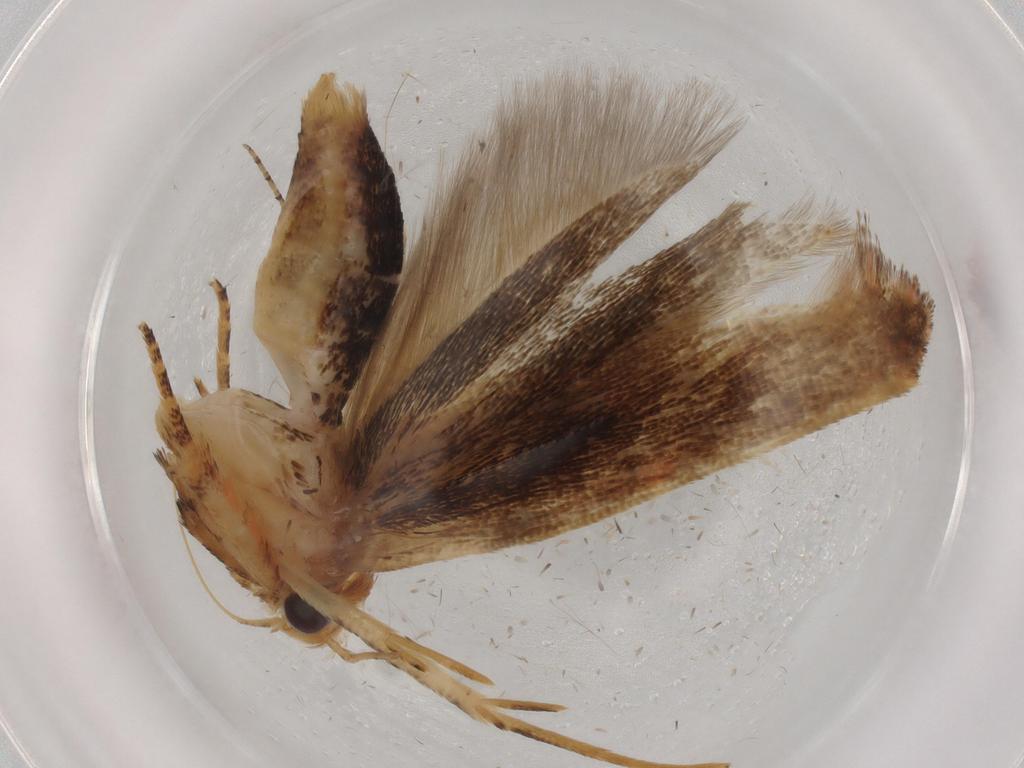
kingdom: Animalia
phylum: Arthropoda
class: Insecta
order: Lepidoptera
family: Gelechiidae
